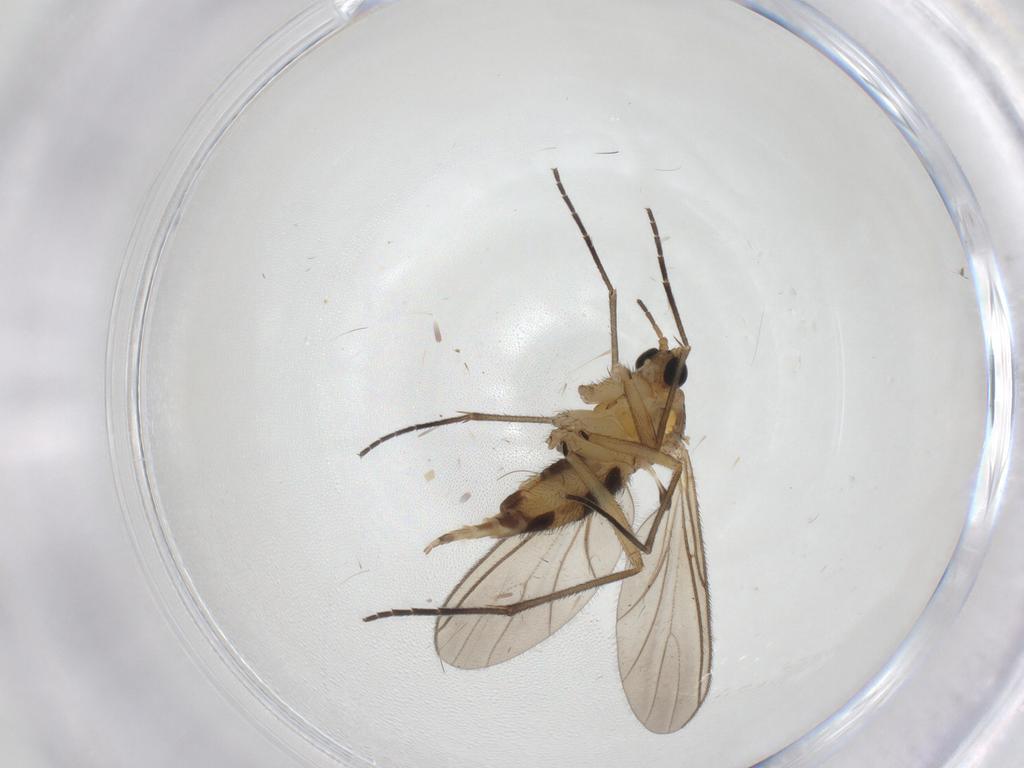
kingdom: Animalia
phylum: Arthropoda
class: Insecta
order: Diptera
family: Limoniidae
